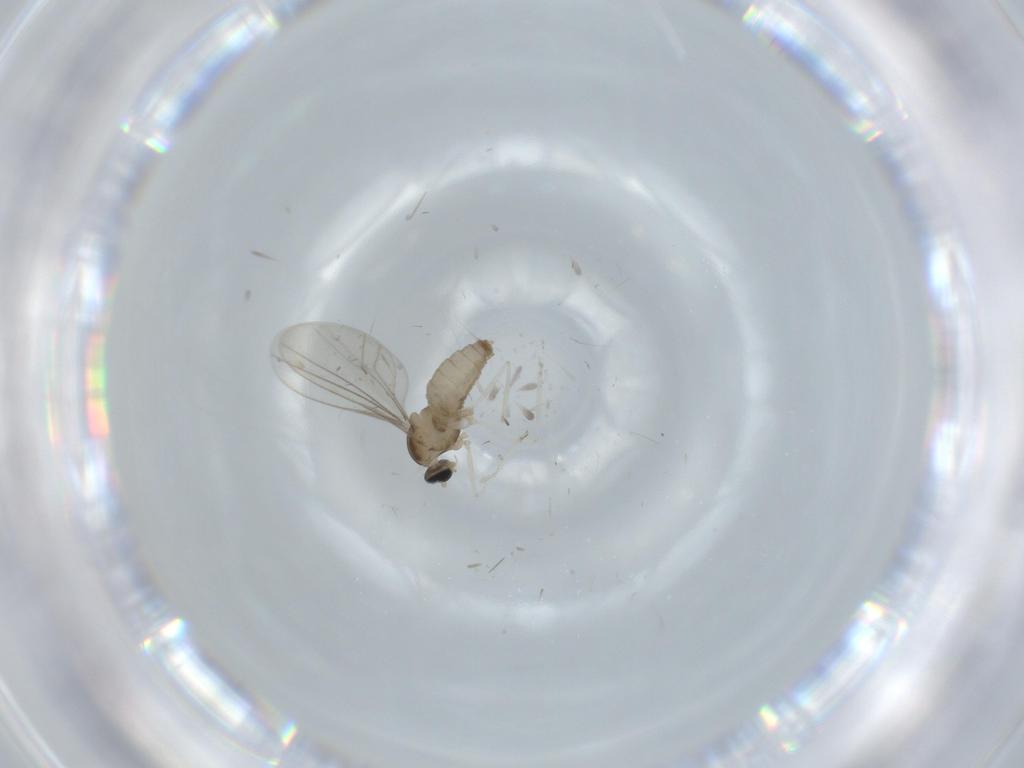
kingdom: Animalia
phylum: Arthropoda
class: Insecta
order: Diptera
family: Cecidomyiidae
